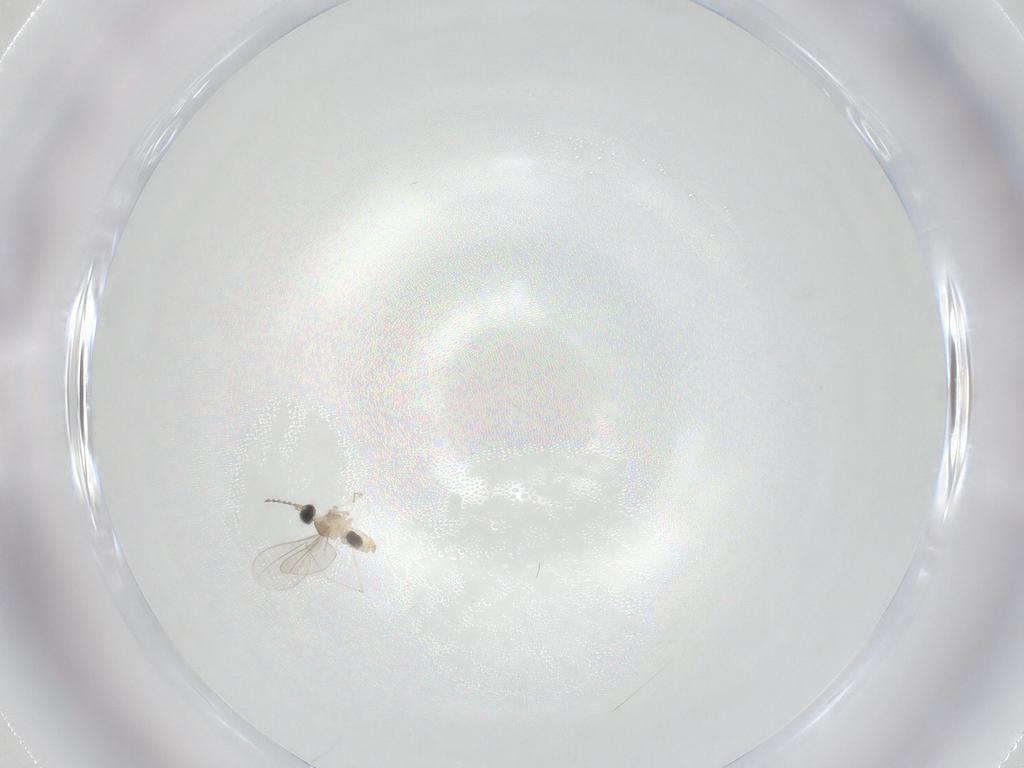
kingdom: Animalia
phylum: Arthropoda
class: Insecta
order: Diptera
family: Cecidomyiidae
